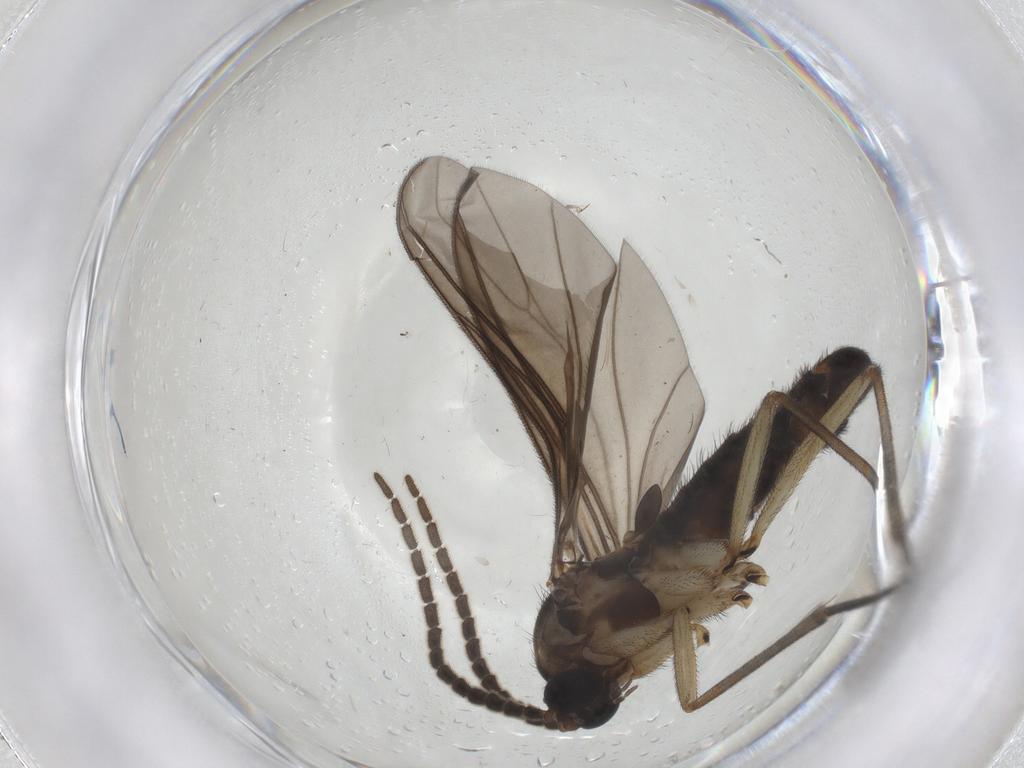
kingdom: Animalia
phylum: Arthropoda
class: Insecta
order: Diptera
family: Sciaridae
